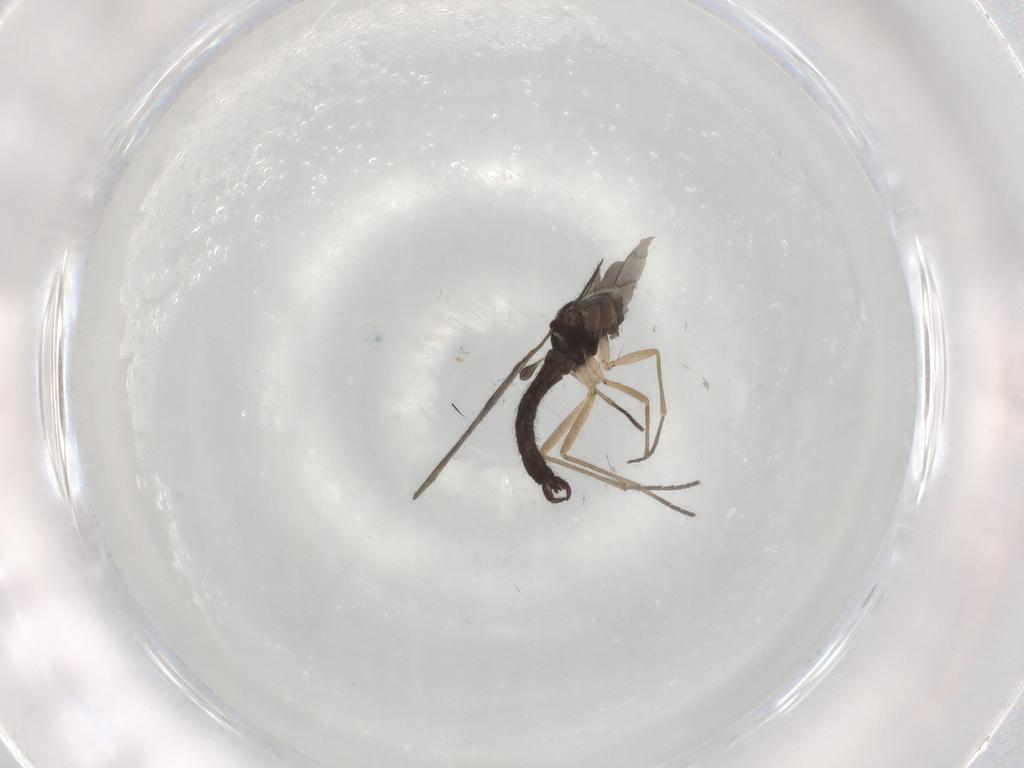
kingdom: Animalia
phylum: Arthropoda
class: Insecta
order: Diptera
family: Sciaridae
